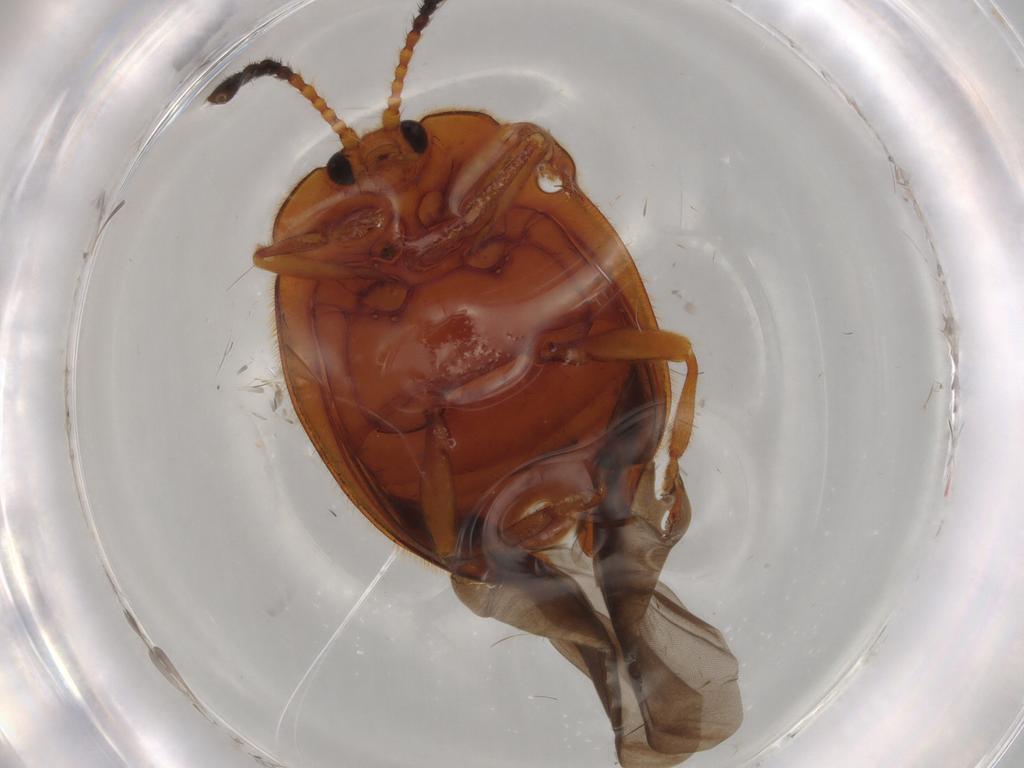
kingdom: Animalia
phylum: Arthropoda
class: Insecta
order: Coleoptera
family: Endomychidae
